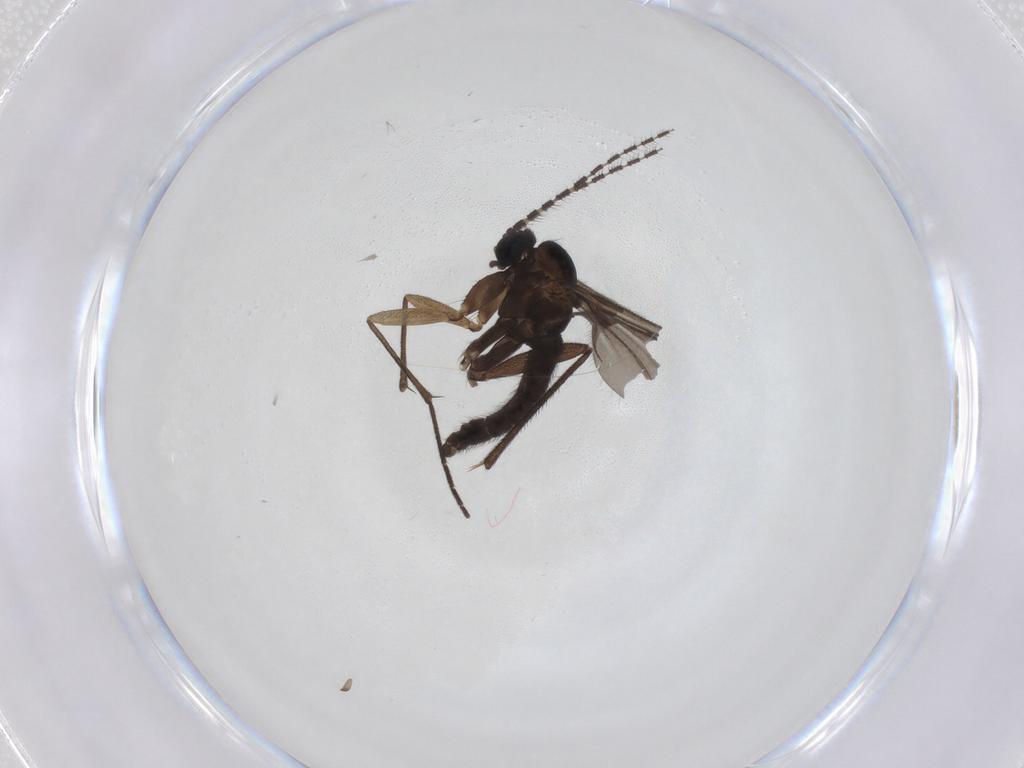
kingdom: Animalia
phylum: Arthropoda
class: Insecta
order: Diptera
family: Sciaridae
